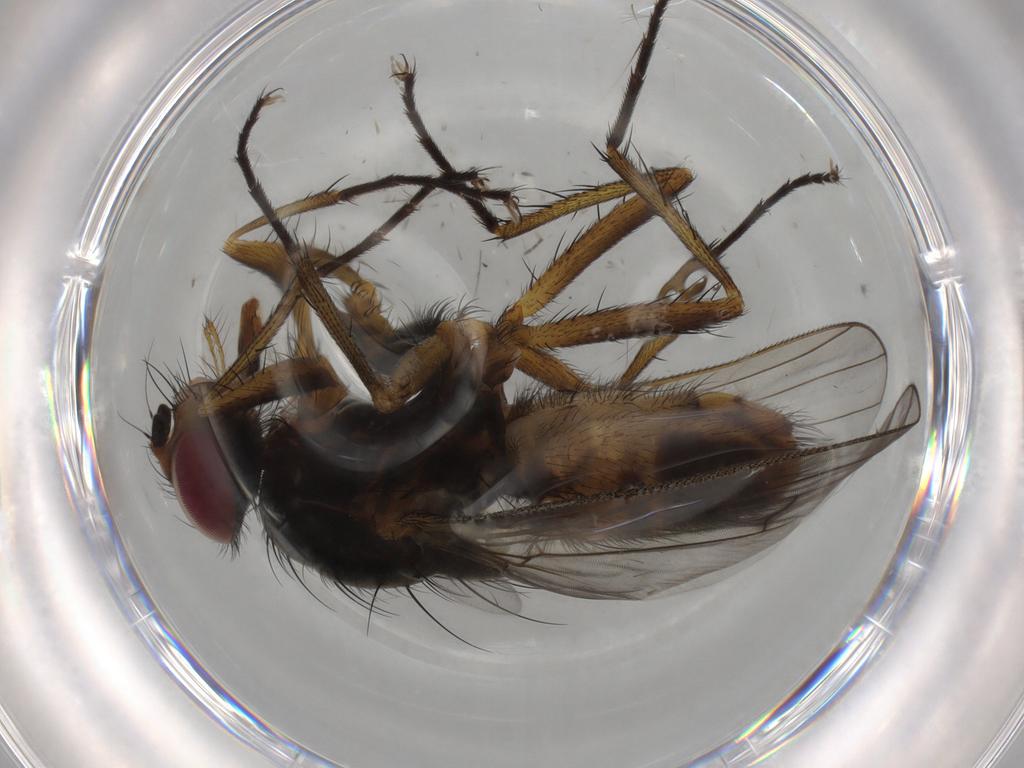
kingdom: Animalia
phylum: Arthropoda
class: Insecta
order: Diptera
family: Anthomyiidae
